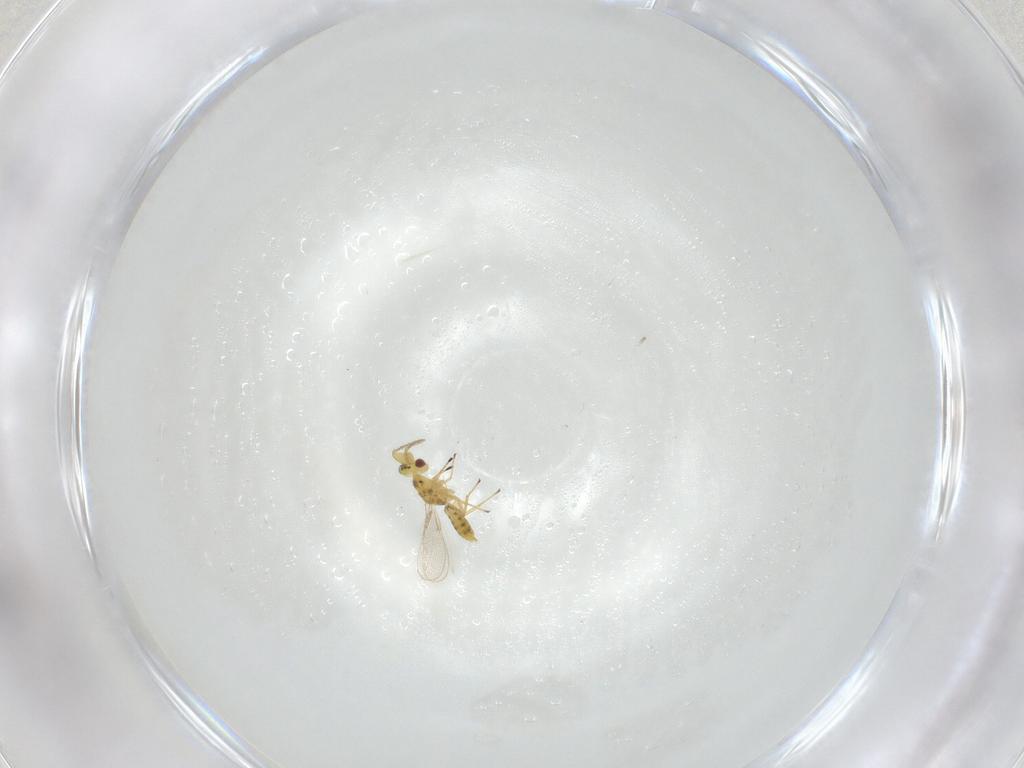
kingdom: Animalia
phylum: Arthropoda
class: Insecta
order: Hymenoptera
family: Eulophidae
